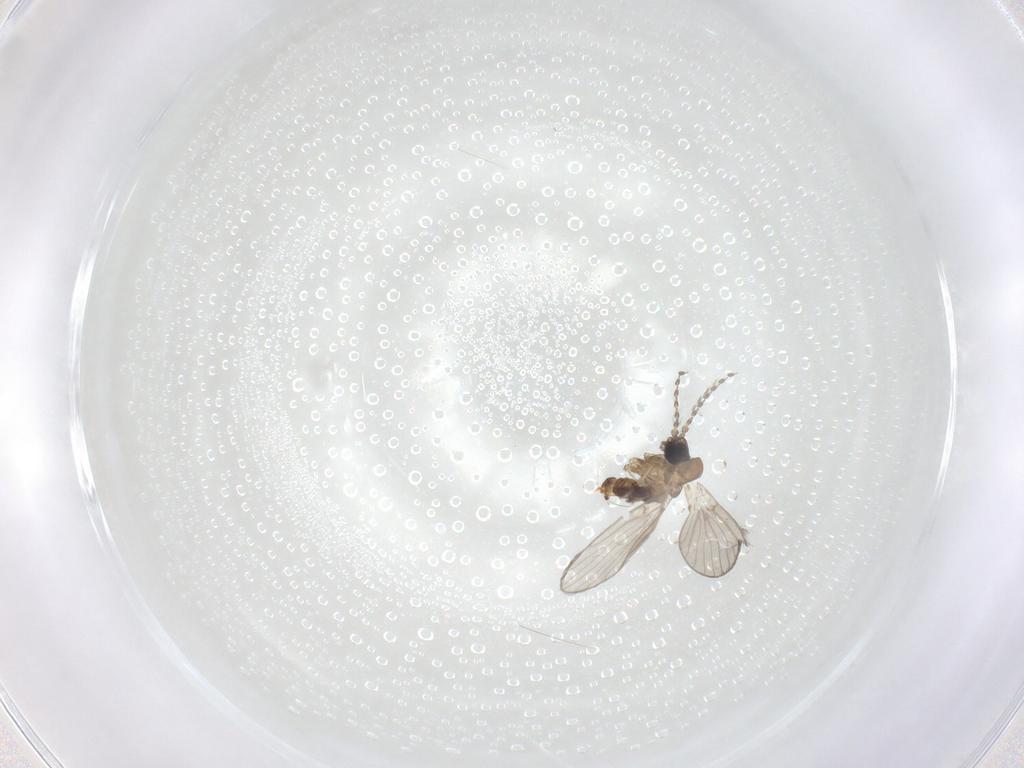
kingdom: Animalia
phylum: Arthropoda
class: Insecta
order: Diptera
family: Psychodidae
